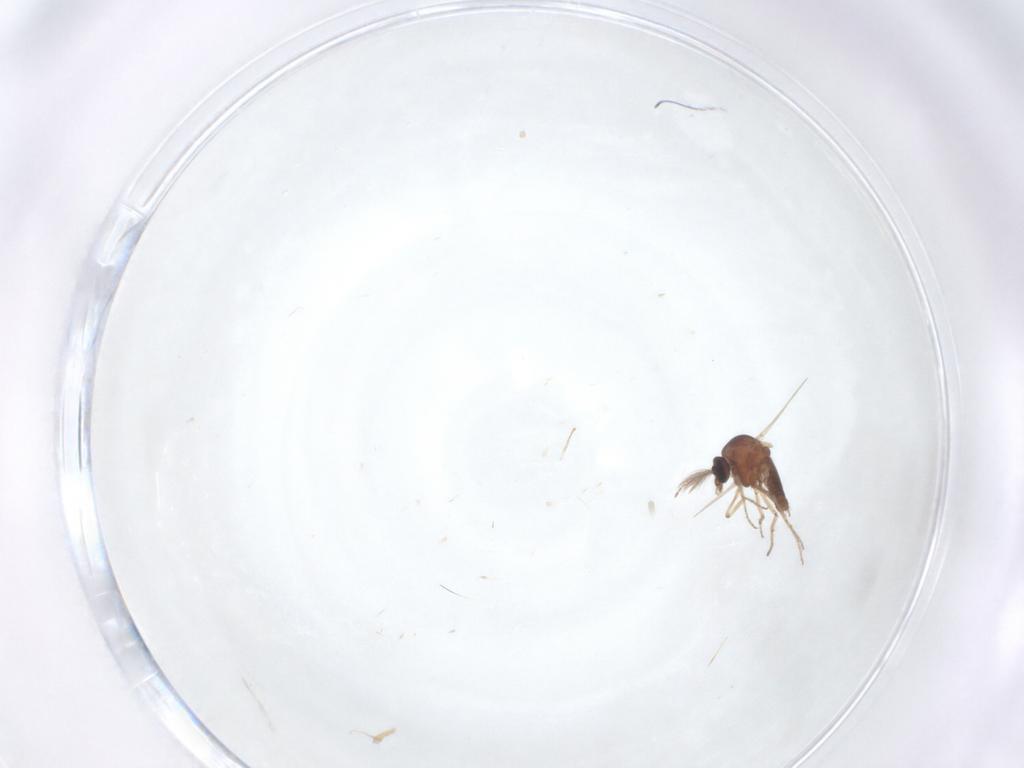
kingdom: Animalia
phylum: Arthropoda
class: Insecta
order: Diptera
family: Ceratopogonidae
